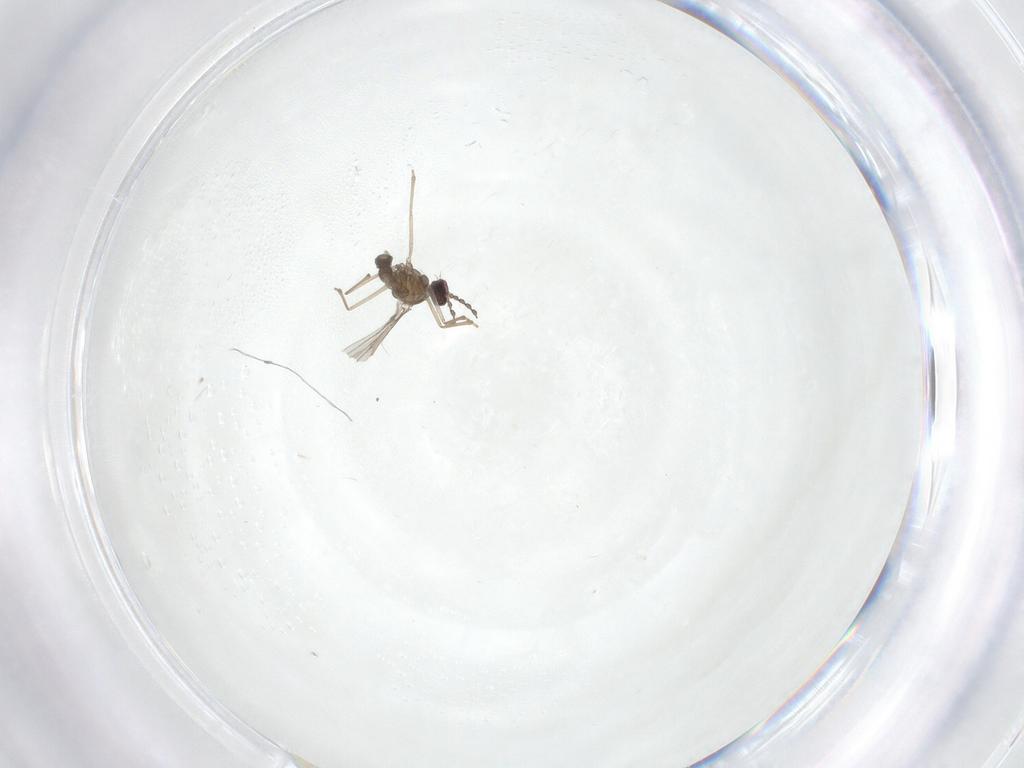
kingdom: Animalia
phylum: Arthropoda
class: Insecta
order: Diptera
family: Cecidomyiidae
